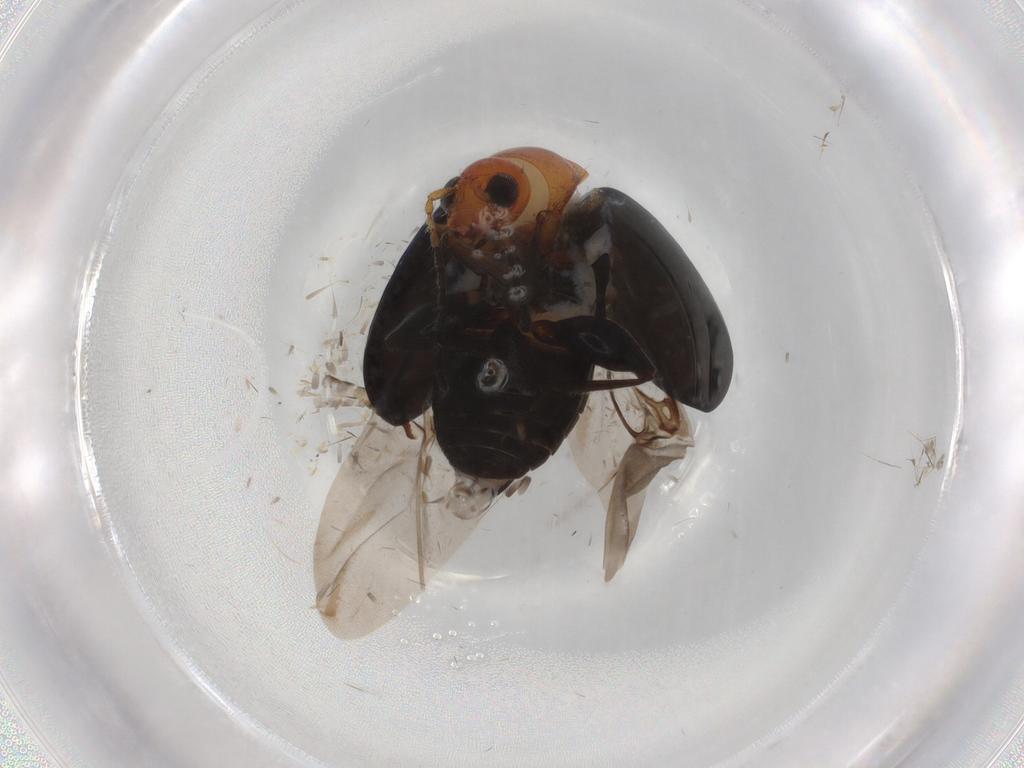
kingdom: Animalia
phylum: Arthropoda
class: Insecta
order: Coleoptera
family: Chrysomelidae
